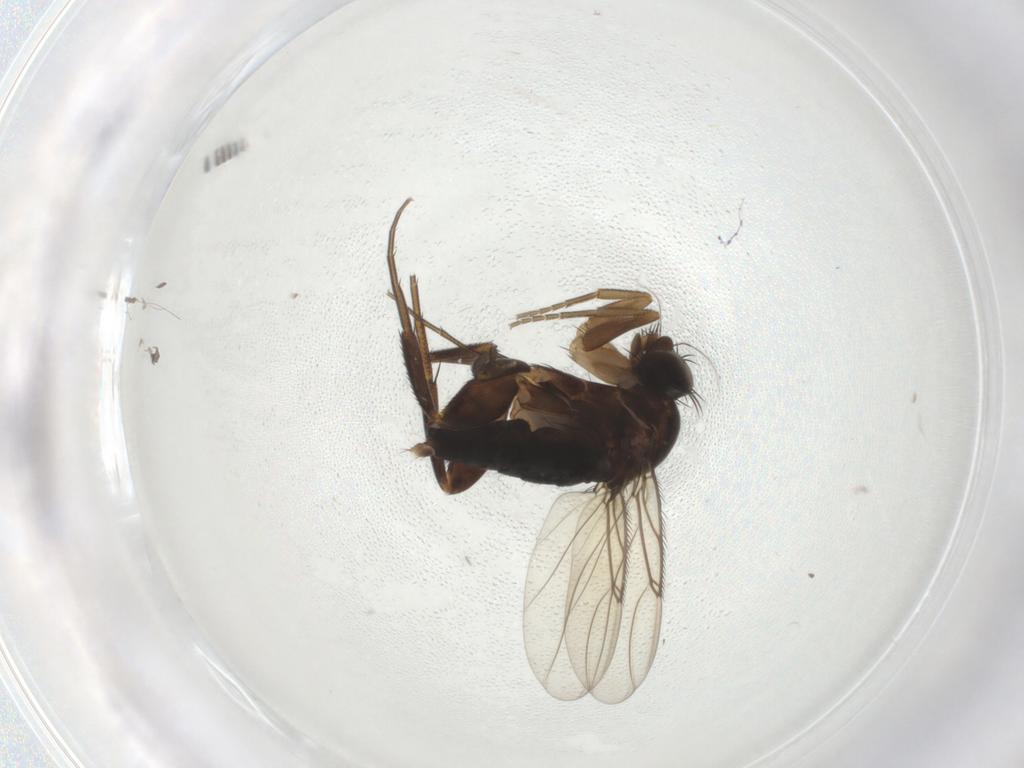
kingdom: Animalia
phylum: Arthropoda
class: Insecta
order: Diptera
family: Phoridae
